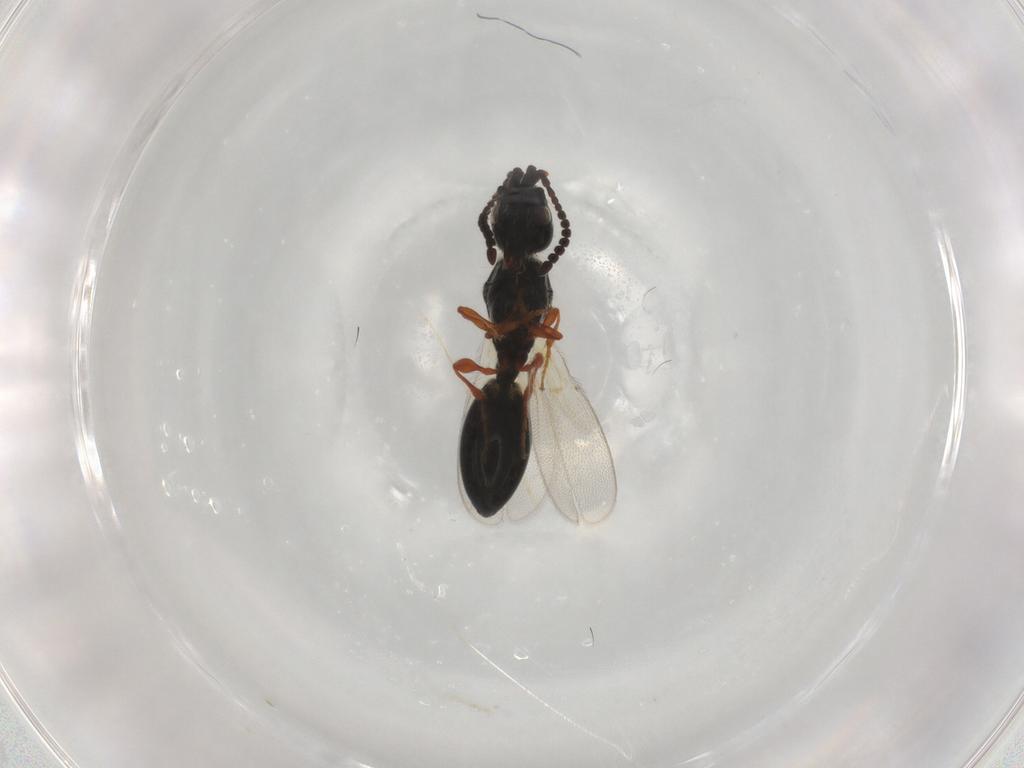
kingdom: Animalia
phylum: Arthropoda
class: Insecta
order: Hymenoptera
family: Diapriidae
